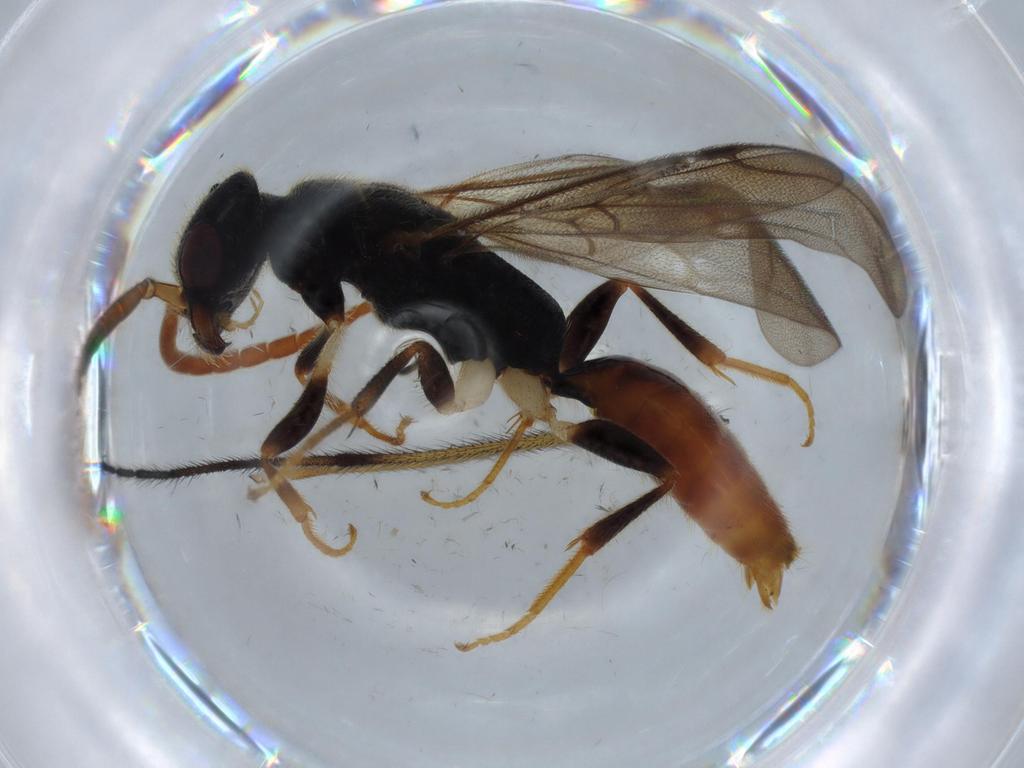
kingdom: Animalia
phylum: Arthropoda
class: Insecta
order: Hymenoptera
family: Bethylidae
